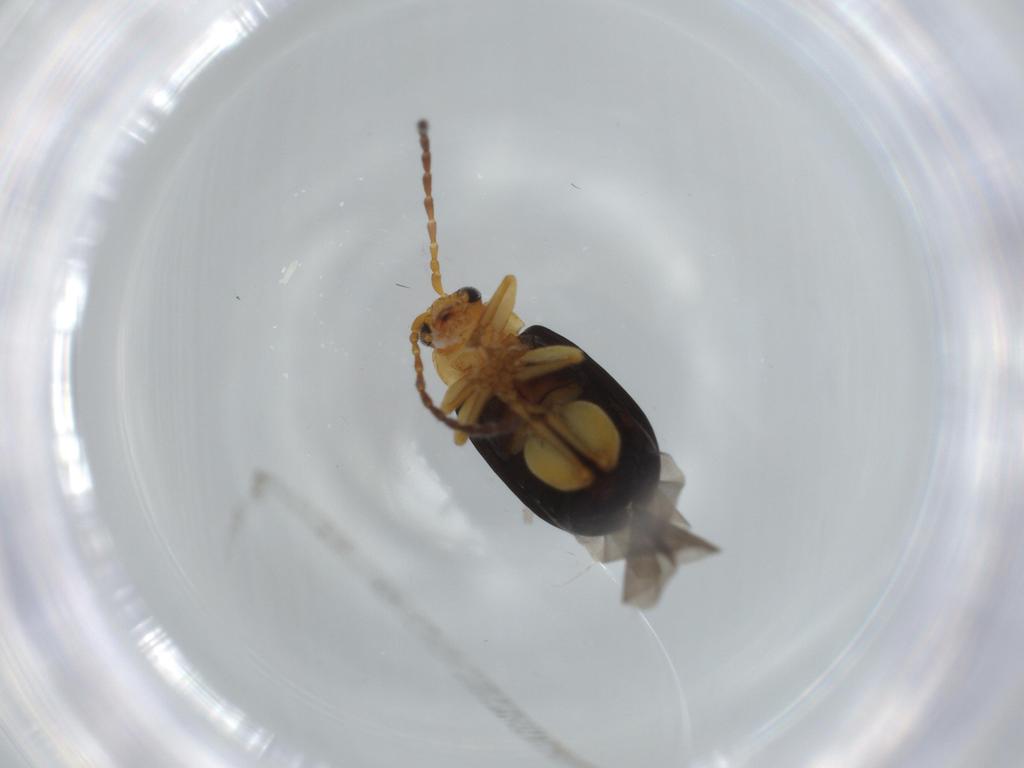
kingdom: Animalia
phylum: Arthropoda
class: Insecta
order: Coleoptera
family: Chrysomelidae
